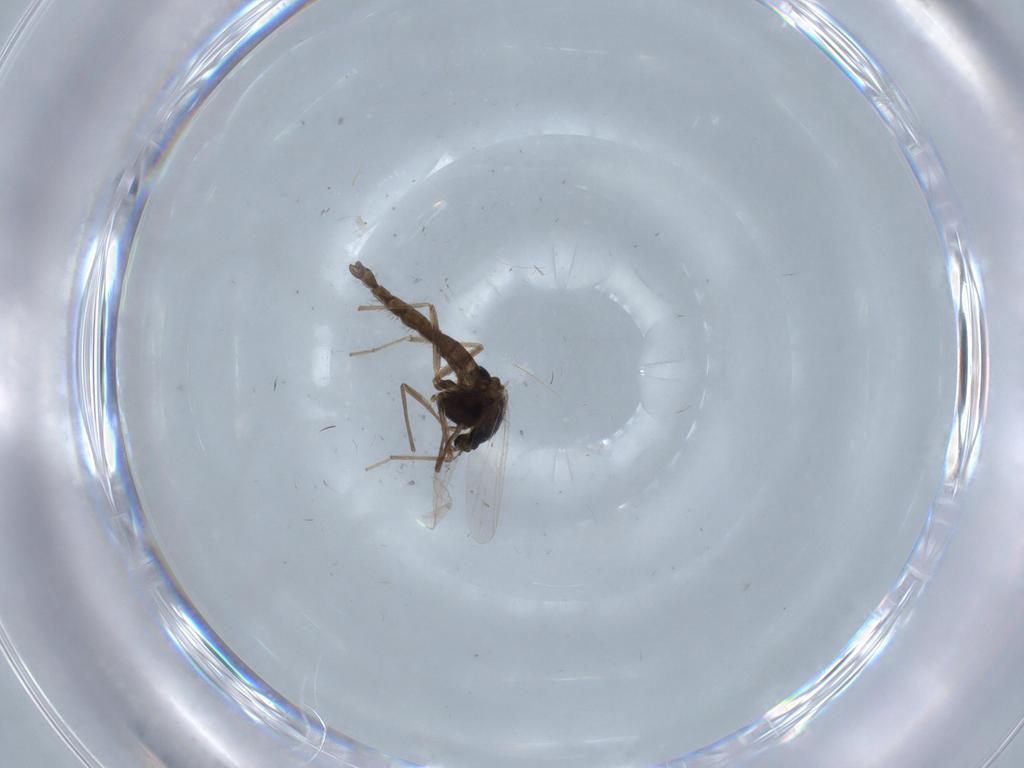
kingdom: Animalia
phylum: Arthropoda
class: Insecta
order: Diptera
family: Chironomidae
